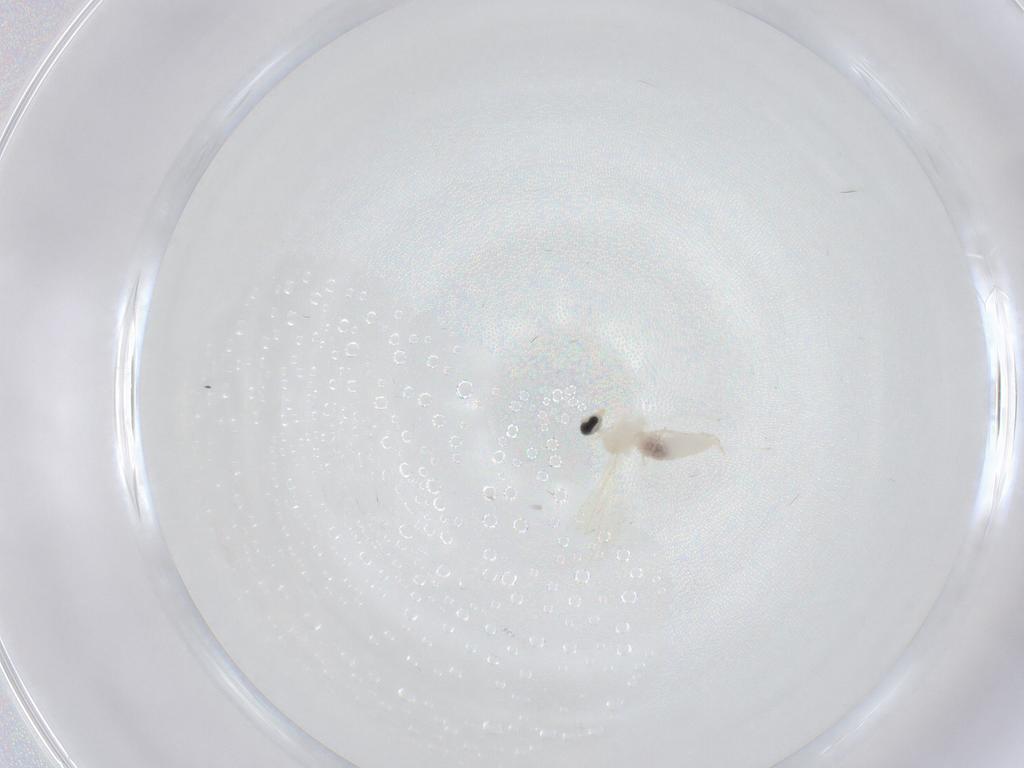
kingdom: Animalia
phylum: Arthropoda
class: Insecta
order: Diptera
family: Cecidomyiidae
